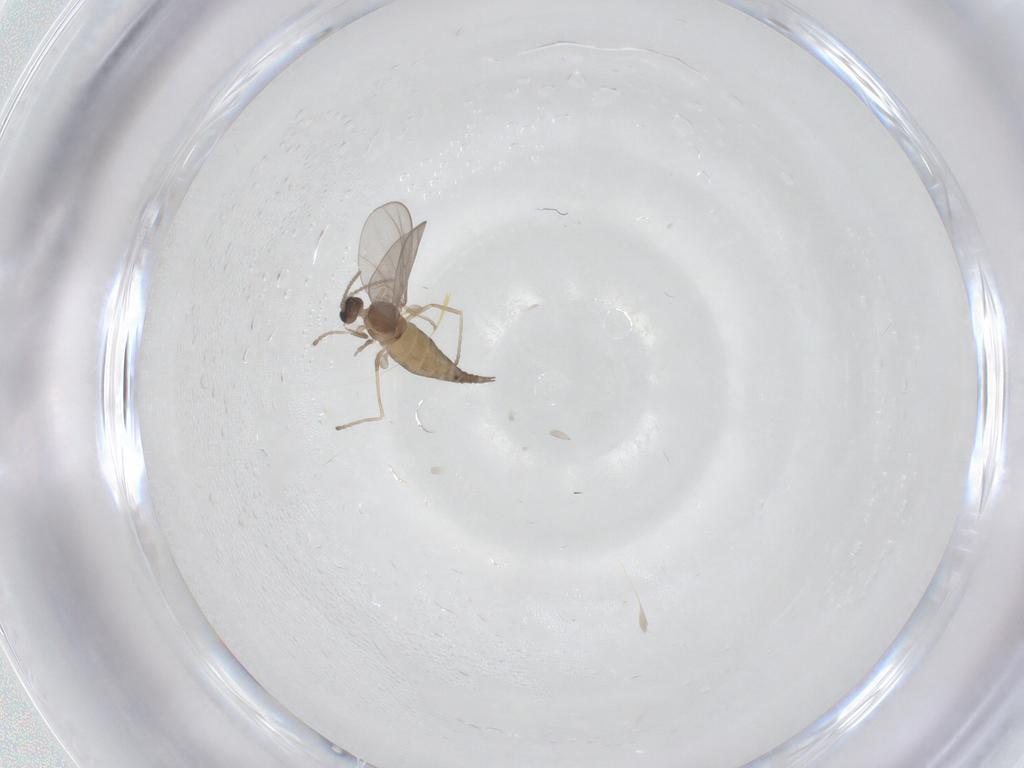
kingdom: Animalia
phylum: Arthropoda
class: Insecta
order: Diptera
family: Cecidomyiidae
